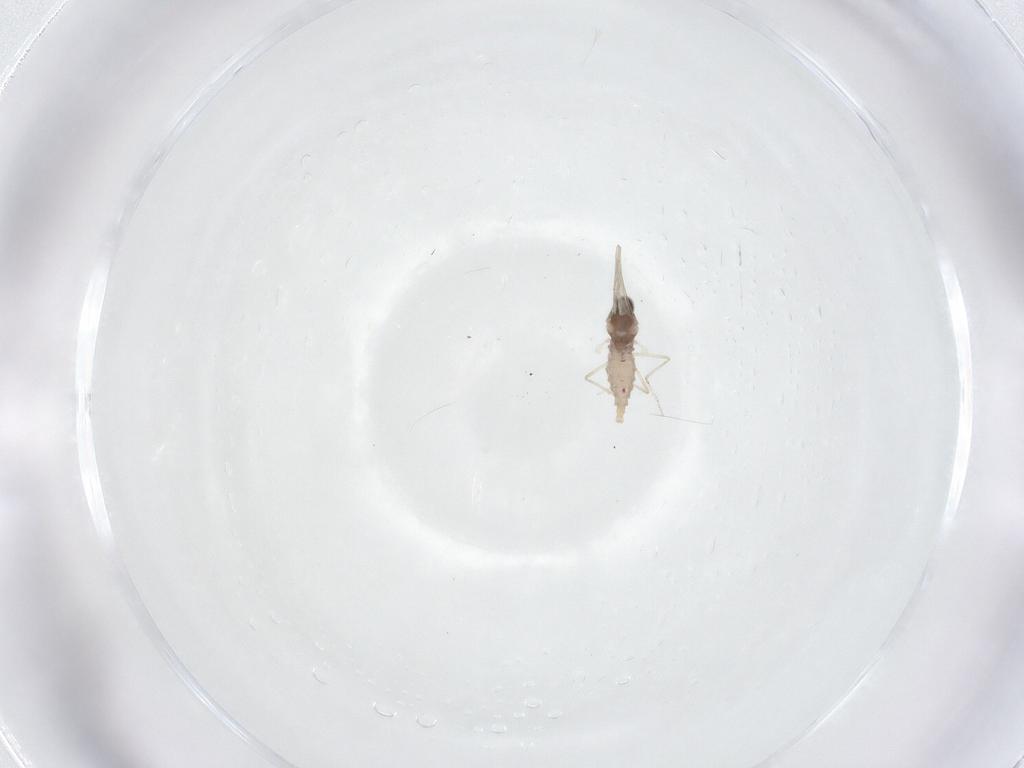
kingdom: Animalia
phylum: Arthropoda
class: Insecta
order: Diptera
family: Cecidomyiidae
